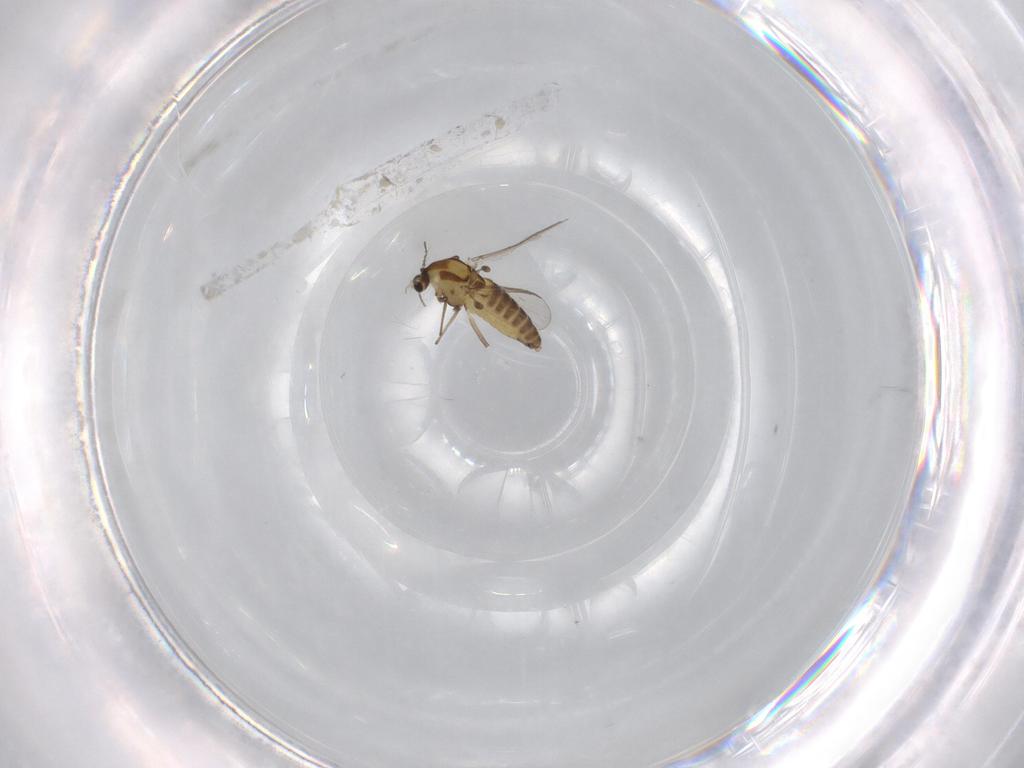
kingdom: Animalia
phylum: Arthropoda
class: Insecta
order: Diptera
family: Chironomidae
